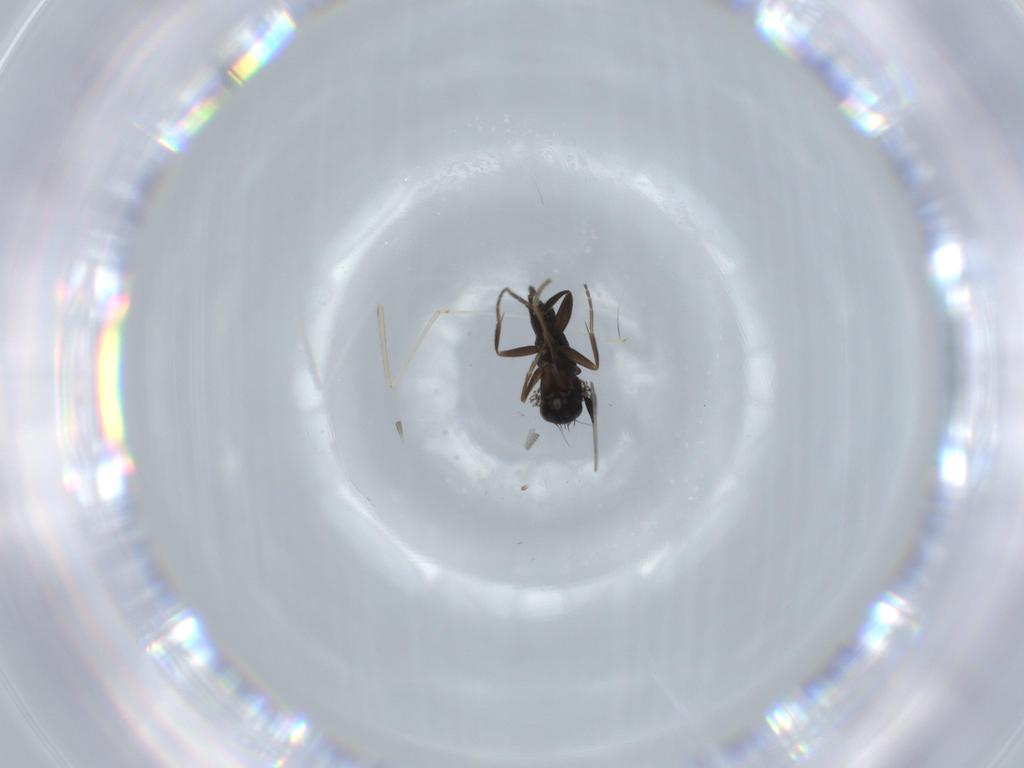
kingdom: Animalia
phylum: Arthropoda
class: Insecta
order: Diptera
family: Cecidomyiidae
